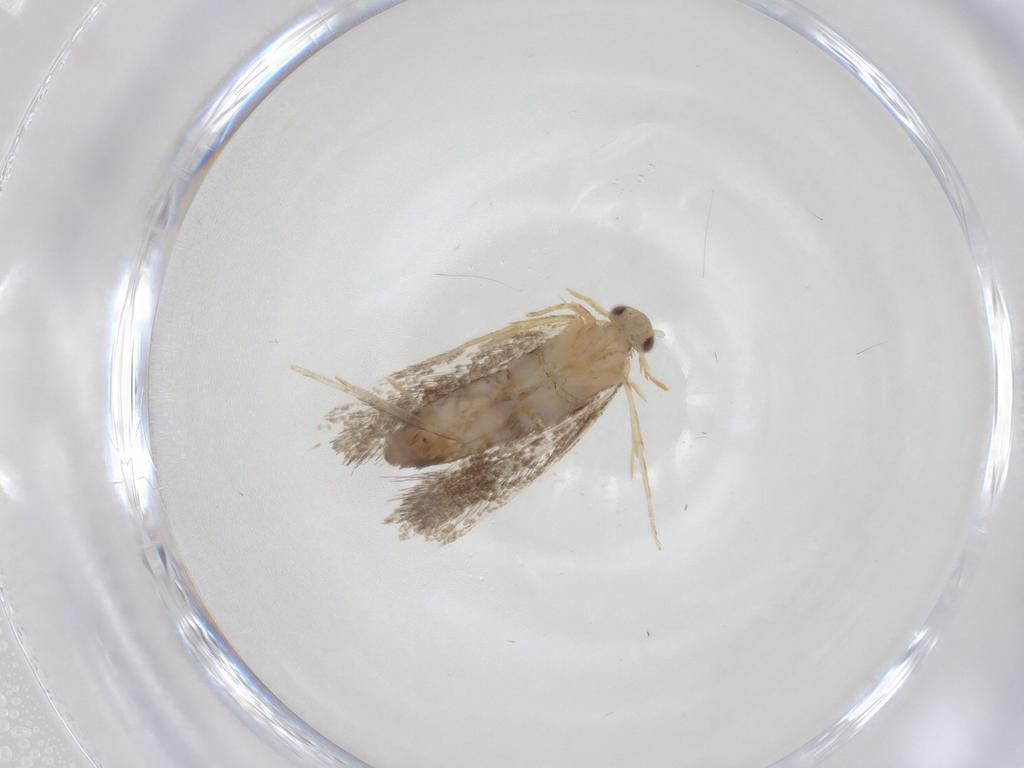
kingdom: Animalia
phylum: Arthropoda
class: Insecta
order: Lepidoptera
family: Dryadaulidae
